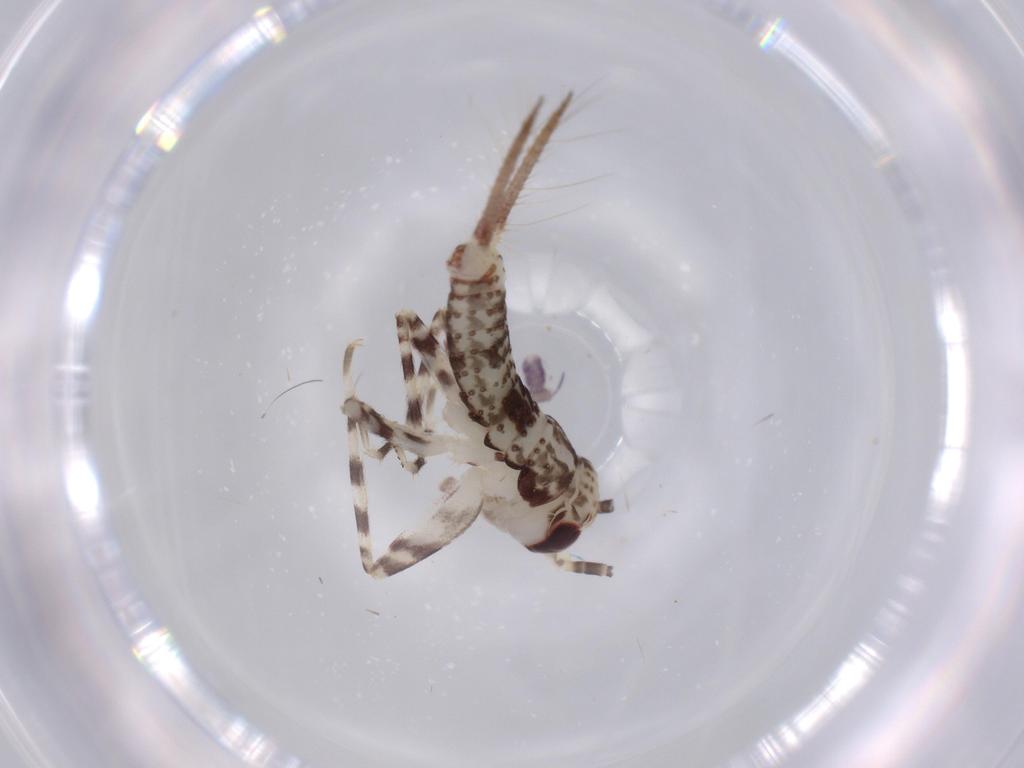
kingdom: Animalia
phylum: Arthropoda
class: Insecta
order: Orthoptera
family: Gryllidae
